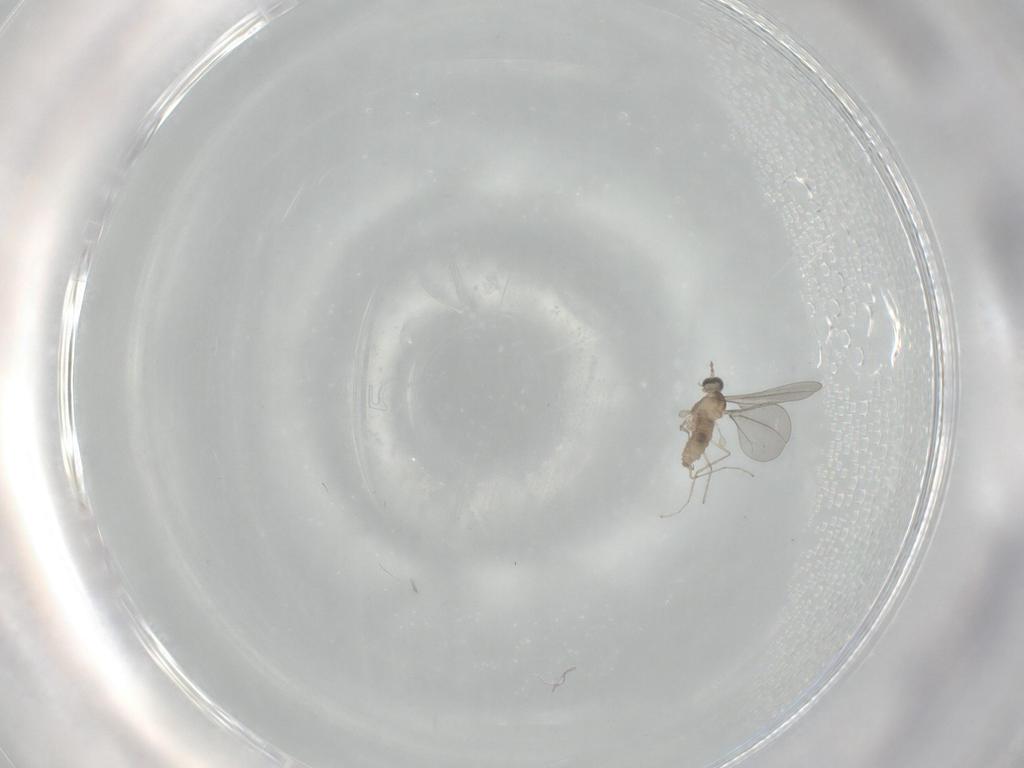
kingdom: Animalia
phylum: Arthropoda
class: Insecta
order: Diptera
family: Cecidomyiidae
